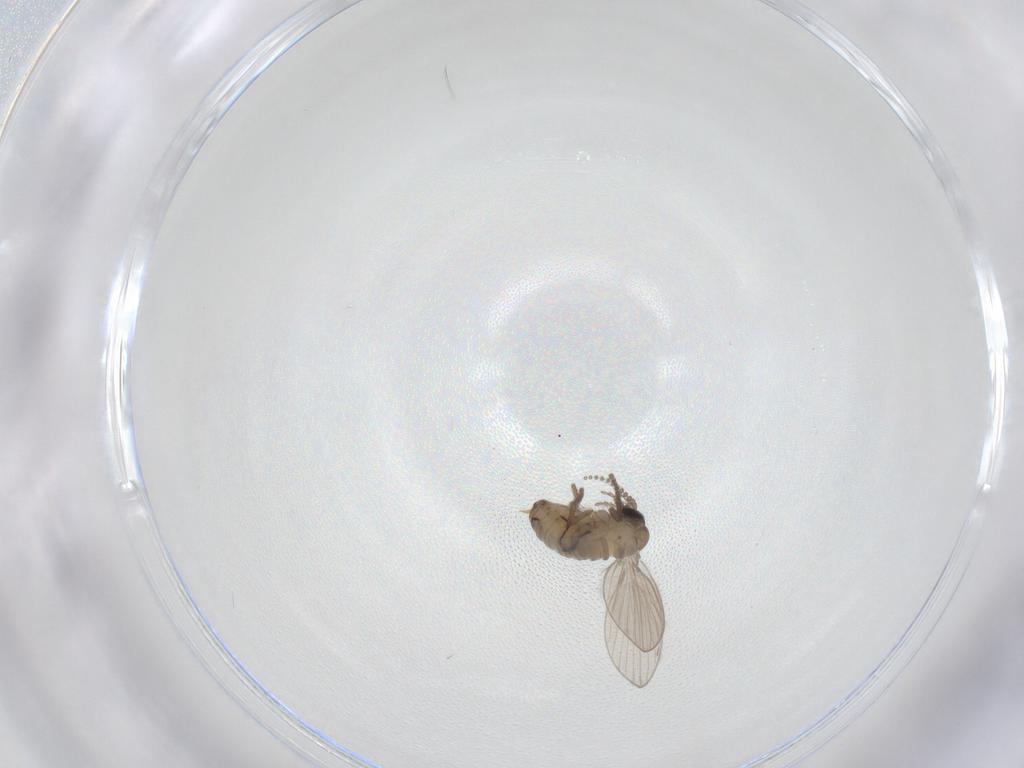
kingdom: Animalia
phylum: Arthropoda
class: Insecta
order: Diptera
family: Psychodidae
